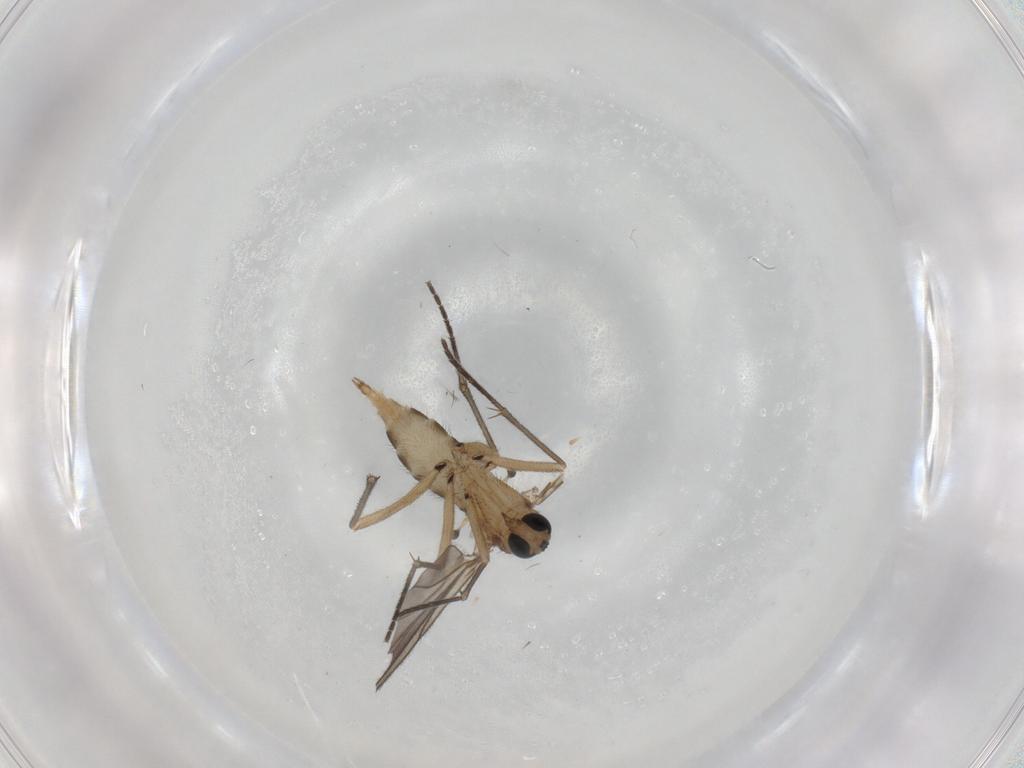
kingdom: Animalia
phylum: Arthropoda
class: Insecta
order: Diptera
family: Sciaridae
